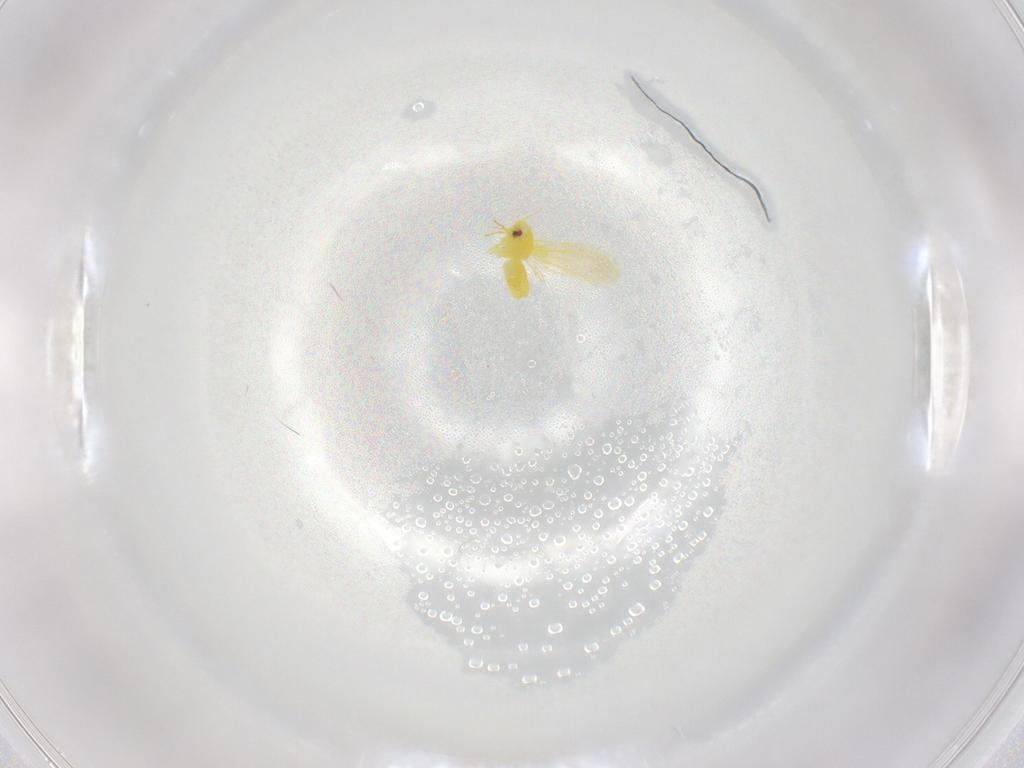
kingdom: Animalia
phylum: Arthropoda
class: Insecta
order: Hemiptera
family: Aleyrodidae
